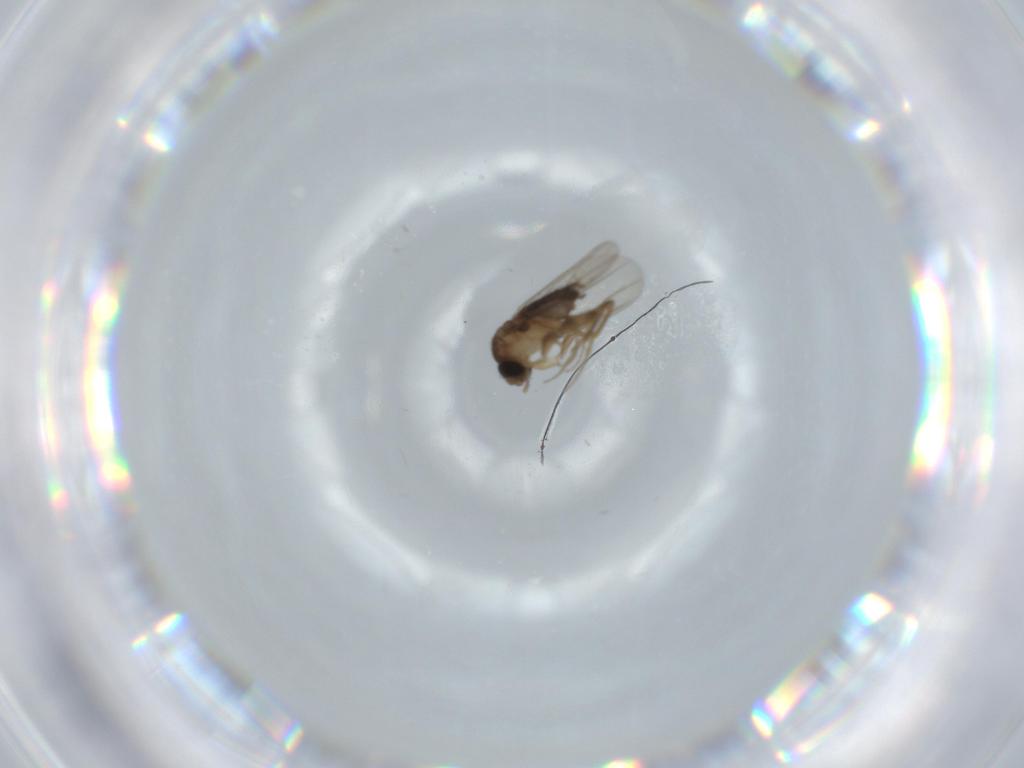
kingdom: Animalia
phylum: Arthropoda
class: Insecta
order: Diptera
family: Phoridae
